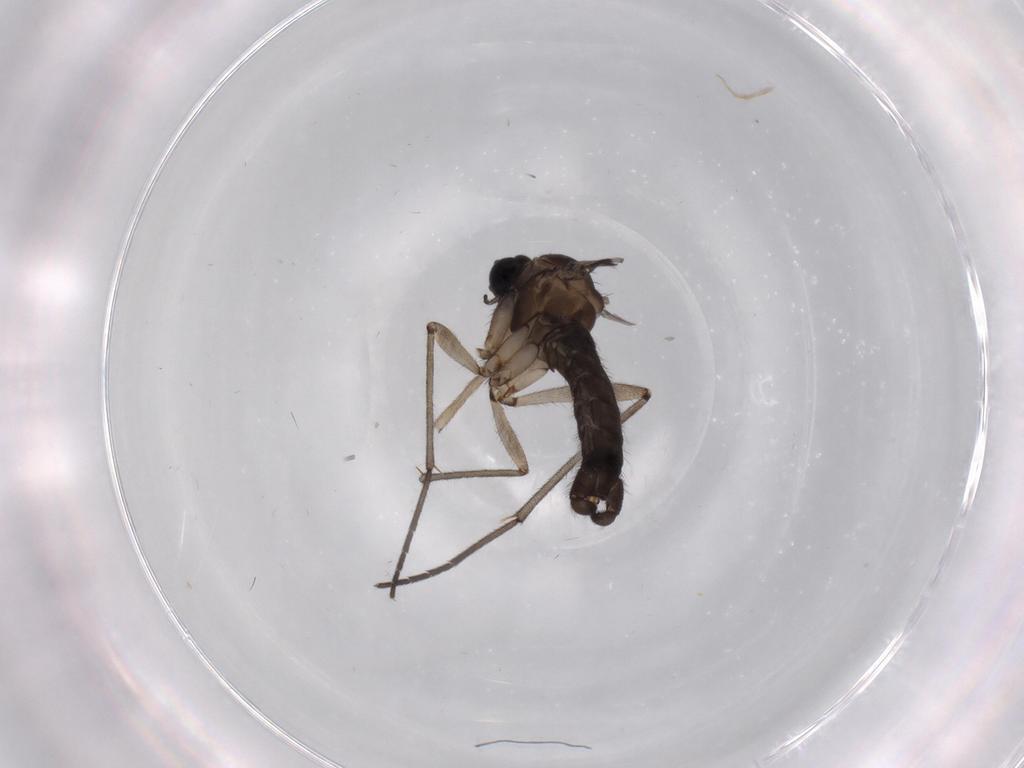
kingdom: Animalia
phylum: Arthropoda
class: Insecta
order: Diptera
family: Sciaridae
